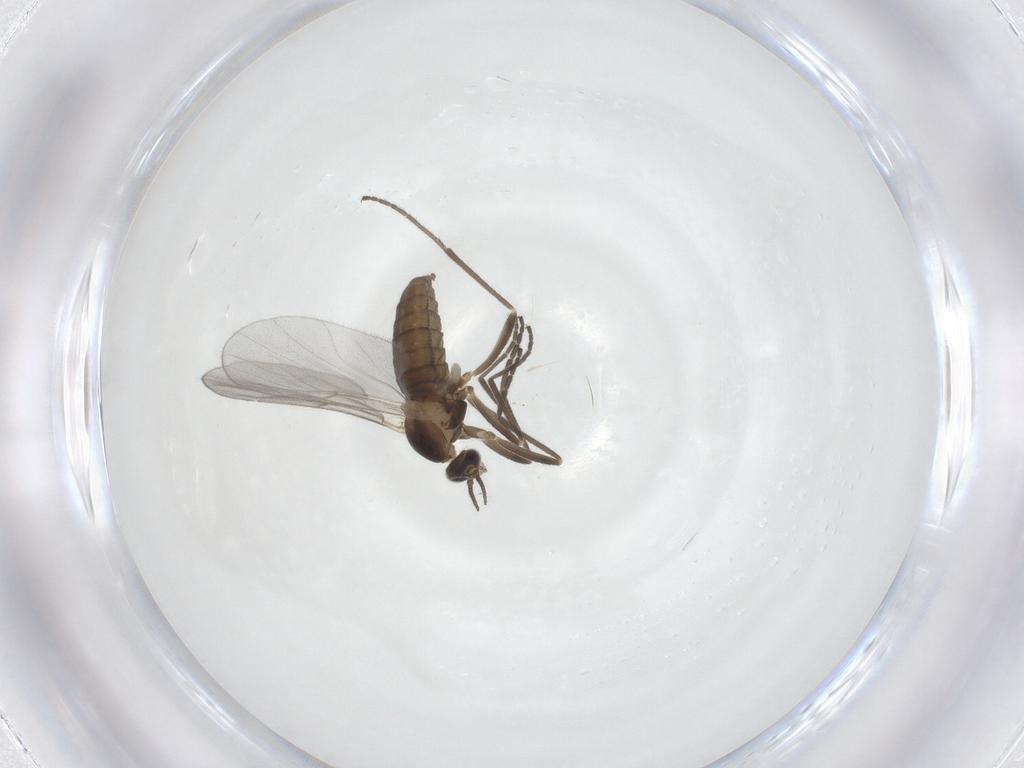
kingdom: Animalia
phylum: Arthropoda
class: Insecta
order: Diptera
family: Cecidomyiidae
